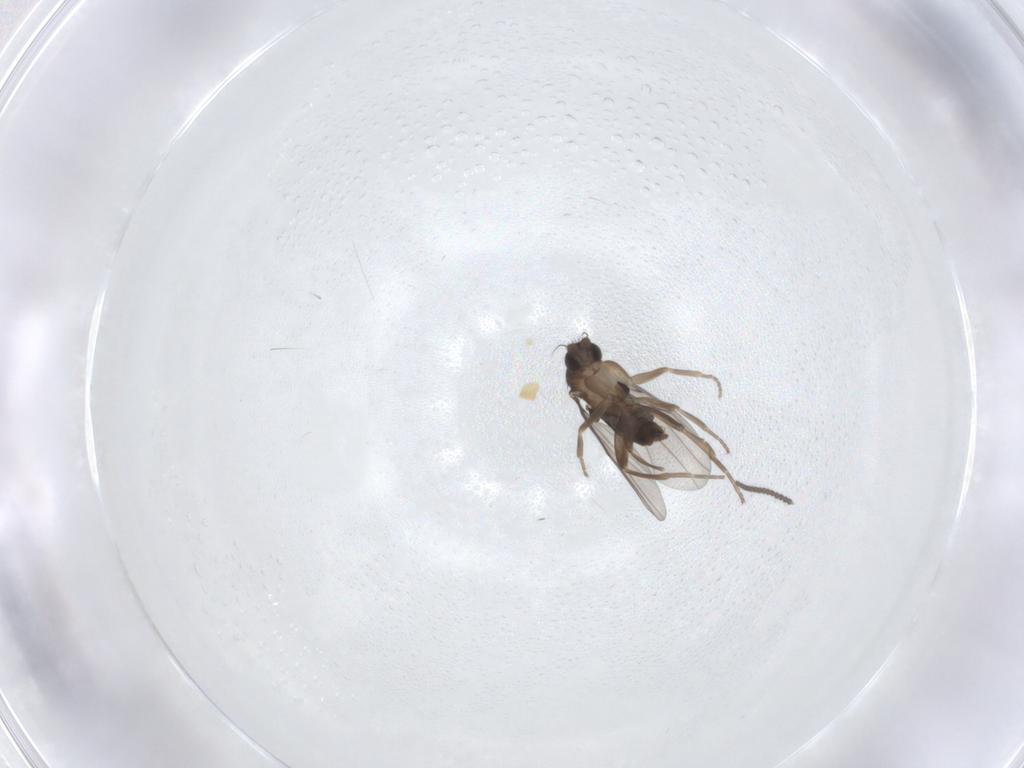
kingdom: Animalia
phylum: Arthropoda
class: Insecta
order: Diptera
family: Phoridae
